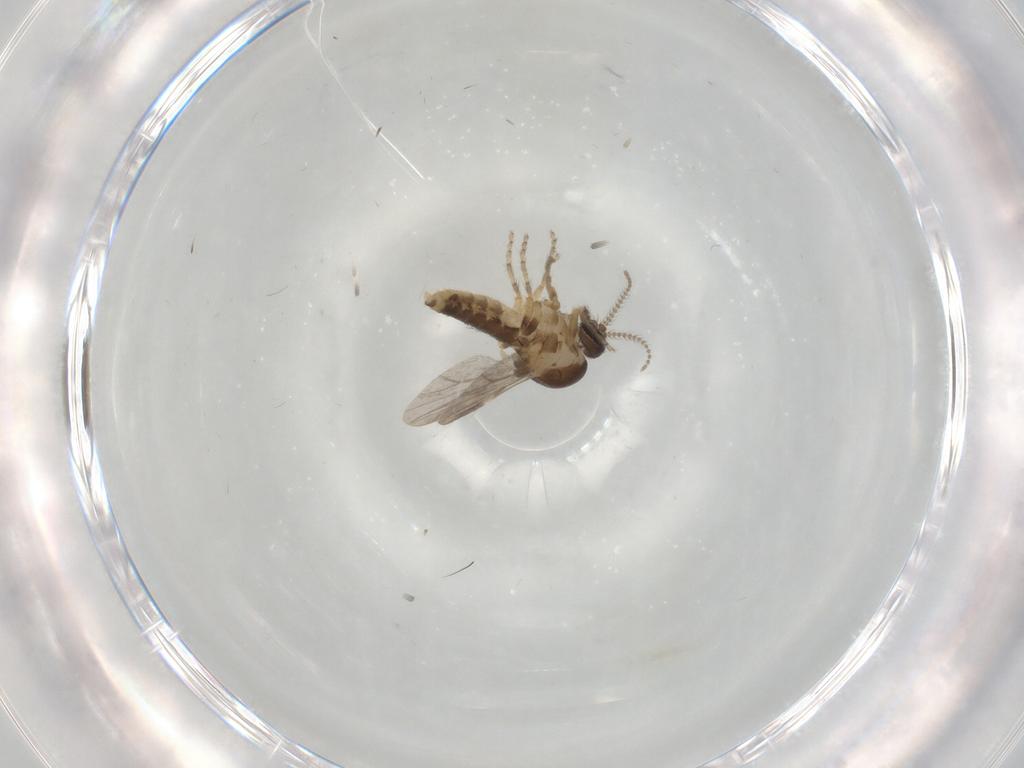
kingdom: Animalia
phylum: Arthropoda
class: Insecta
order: Diptera
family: Ceratopogonidae
